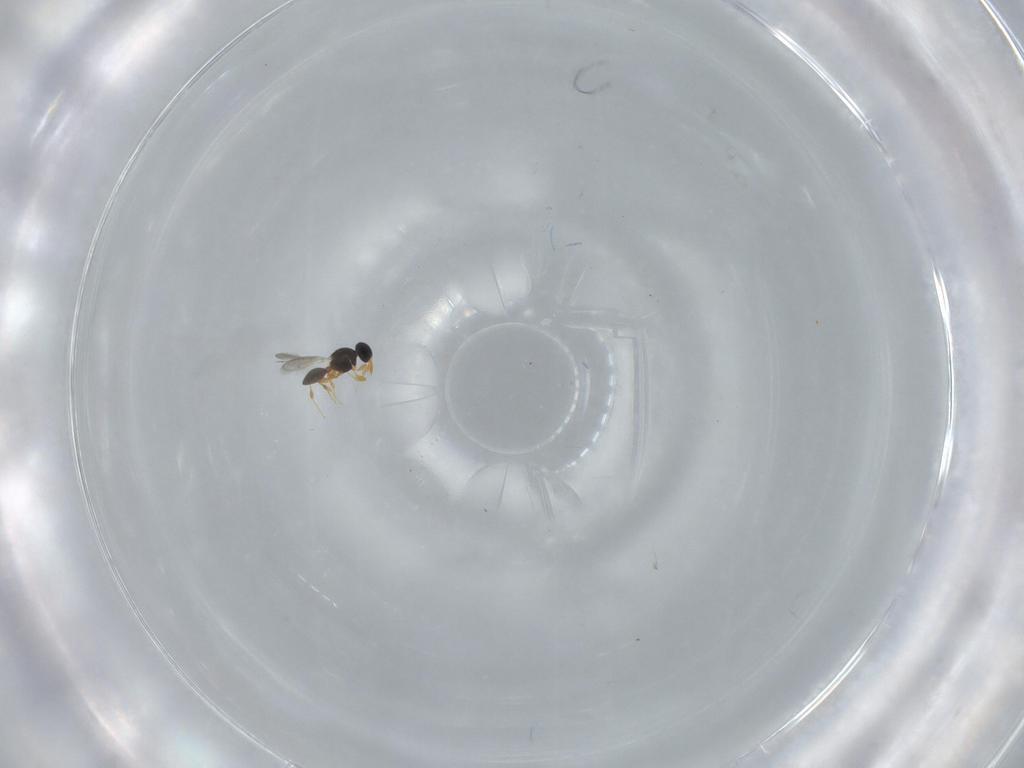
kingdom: Animalia
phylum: Arthropoda
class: Insecta
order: Hymenoptera
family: Platygastridae
